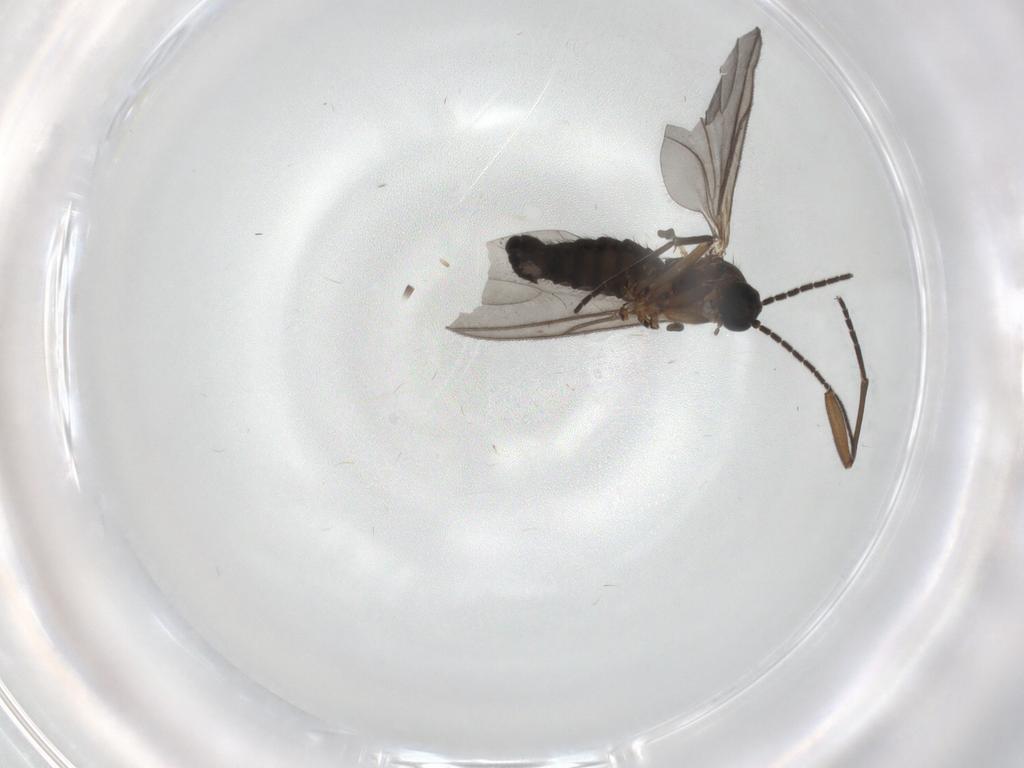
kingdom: Animalia
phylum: Arthropoda
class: Insecta
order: Diptera
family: Sciaridae
